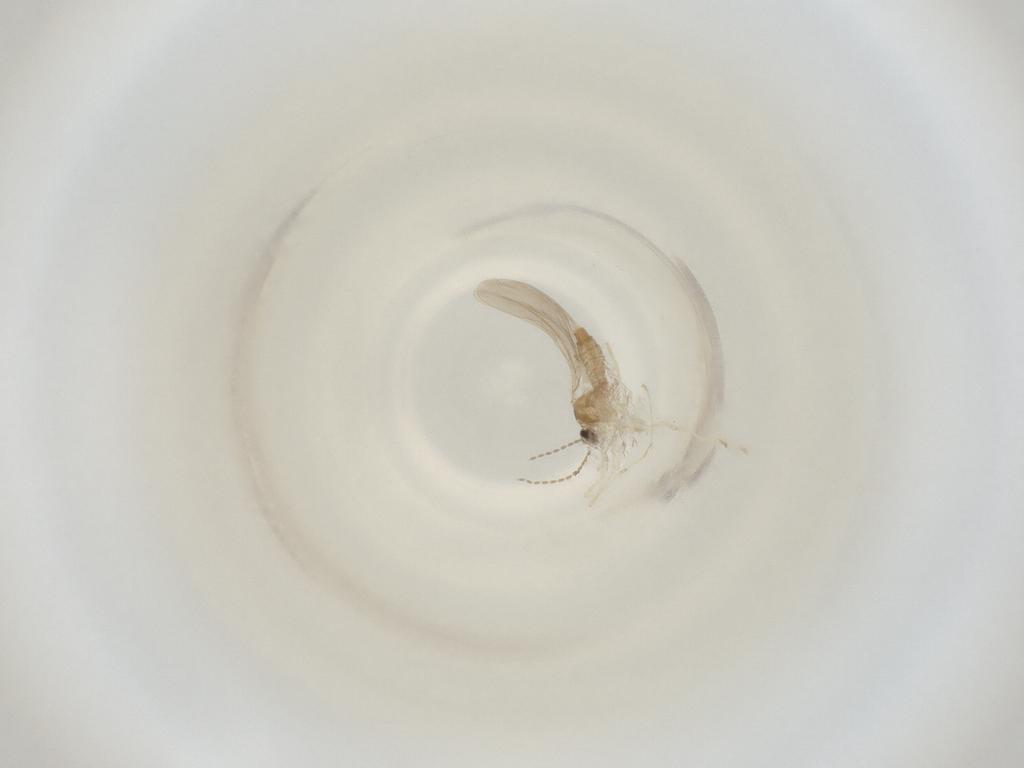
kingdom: Animalia
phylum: Arthropoda
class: Insecta
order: Diptera
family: Cecidomyiidae
